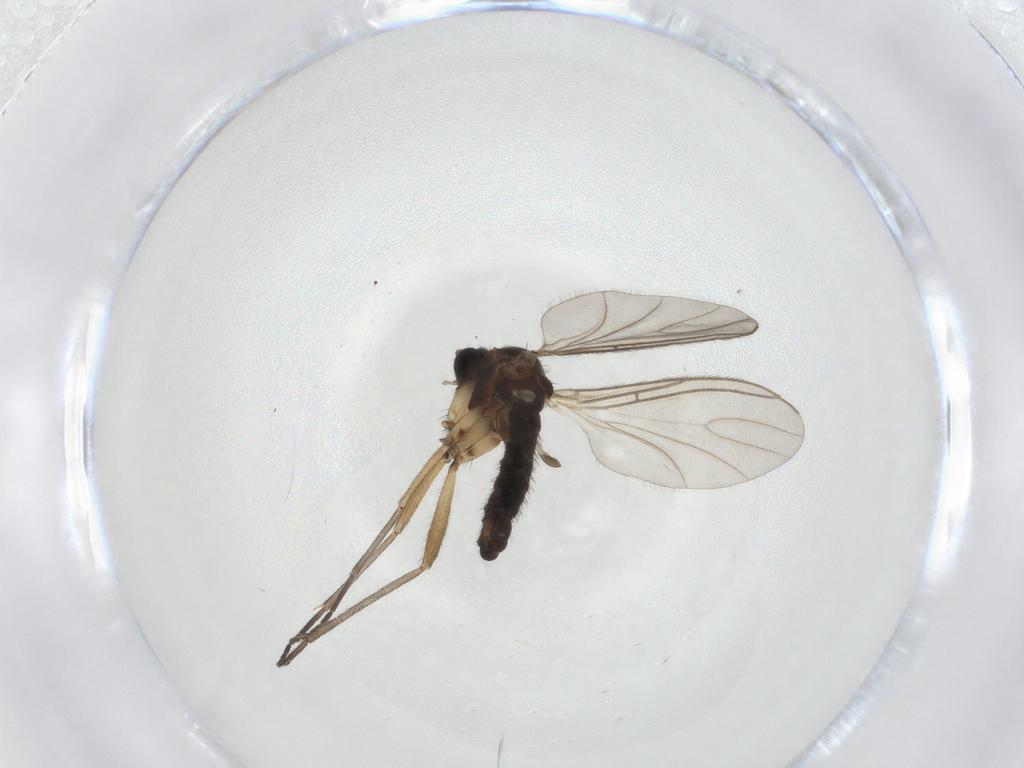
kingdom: Animalia
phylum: Arthropoda
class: Insecta
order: Diptera
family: Sciaridae
